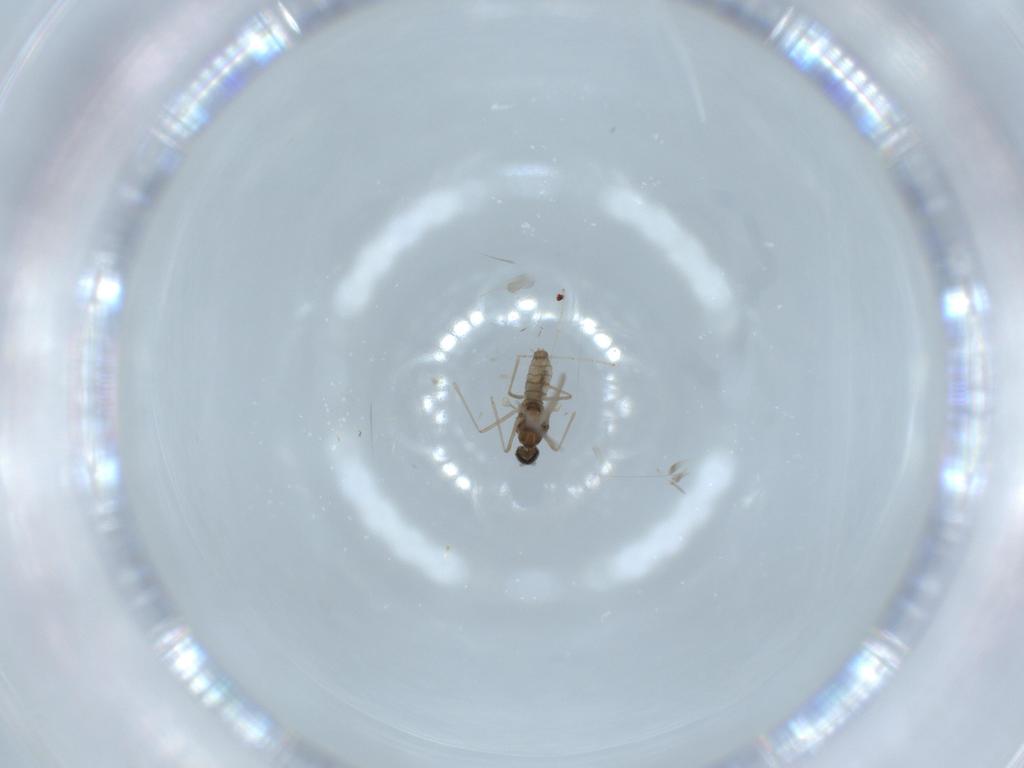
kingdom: Animalia
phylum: Arthropoda
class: Insecta
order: Diptera
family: Cecidomyiidae
